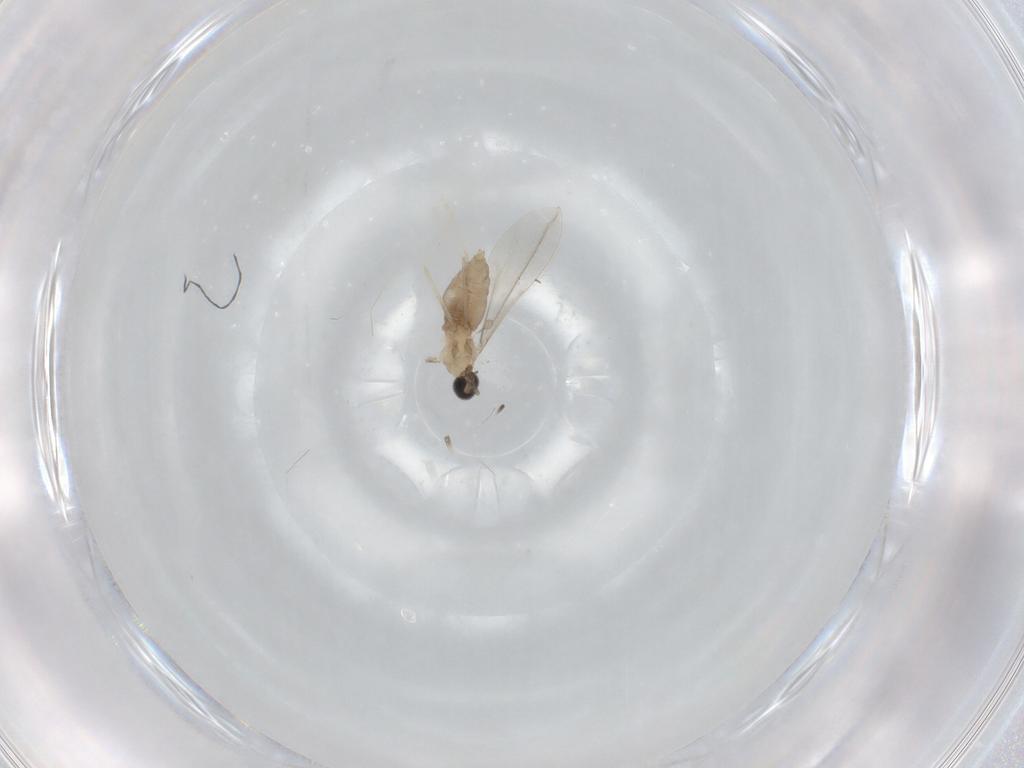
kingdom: Animalia
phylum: Arthropoda
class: Insecta
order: Diptera
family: Cecidomyiidae
